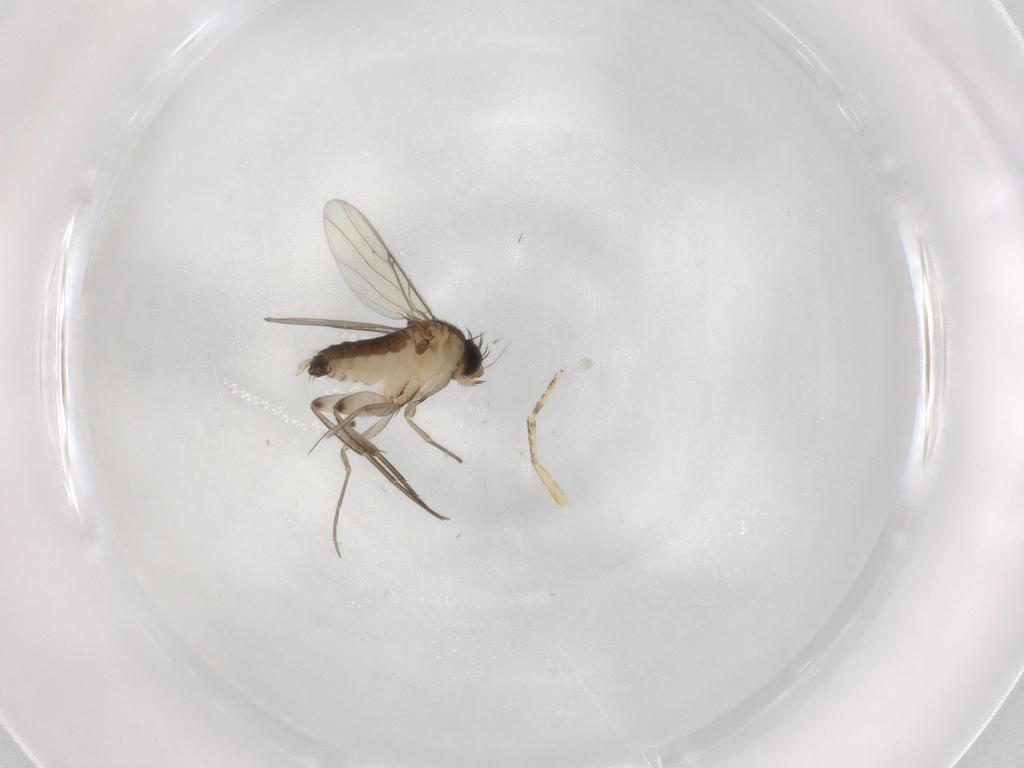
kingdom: Animalia
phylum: Arthropoda
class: Insecta
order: Diptera
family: Phoridae
